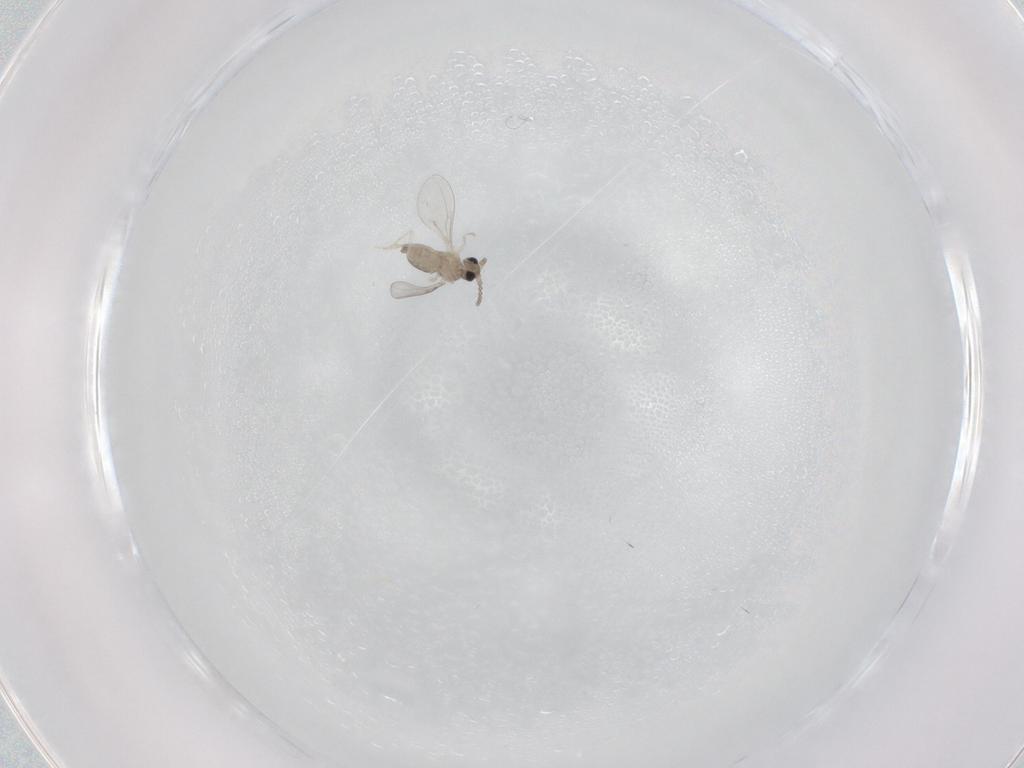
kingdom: Animalia
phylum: Arthropoda
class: Insecta
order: Diptera
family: Cecidomyiidae
